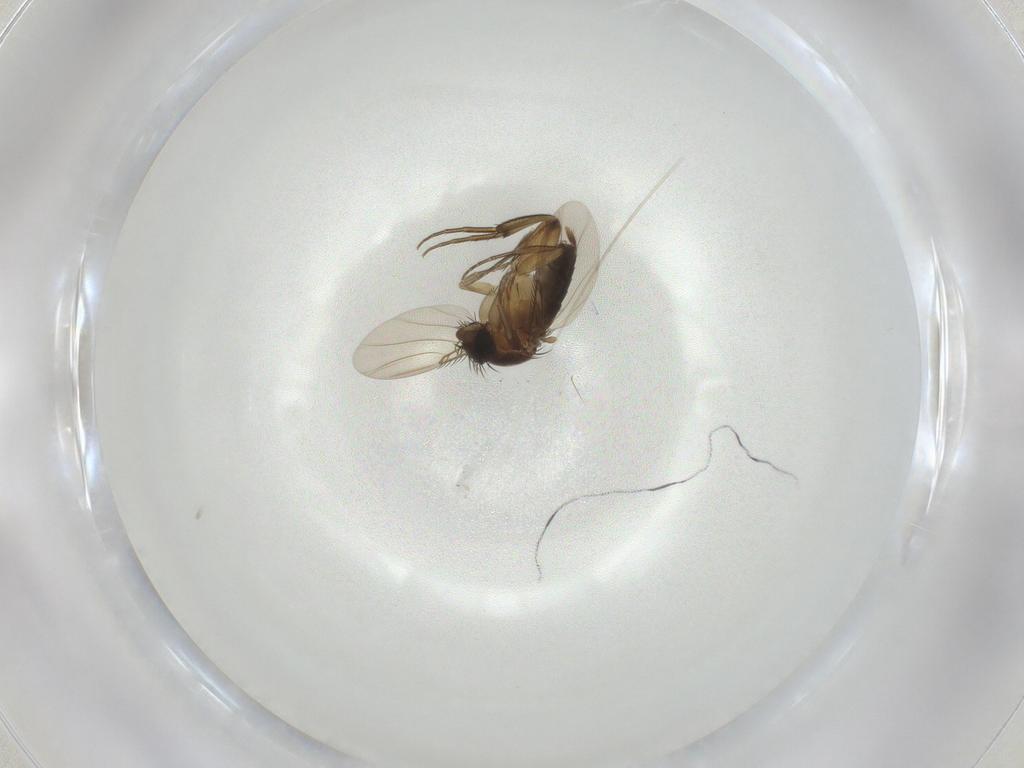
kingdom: Animalia
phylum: Arthropoda
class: Insecta
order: Diptera
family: Phoridae
